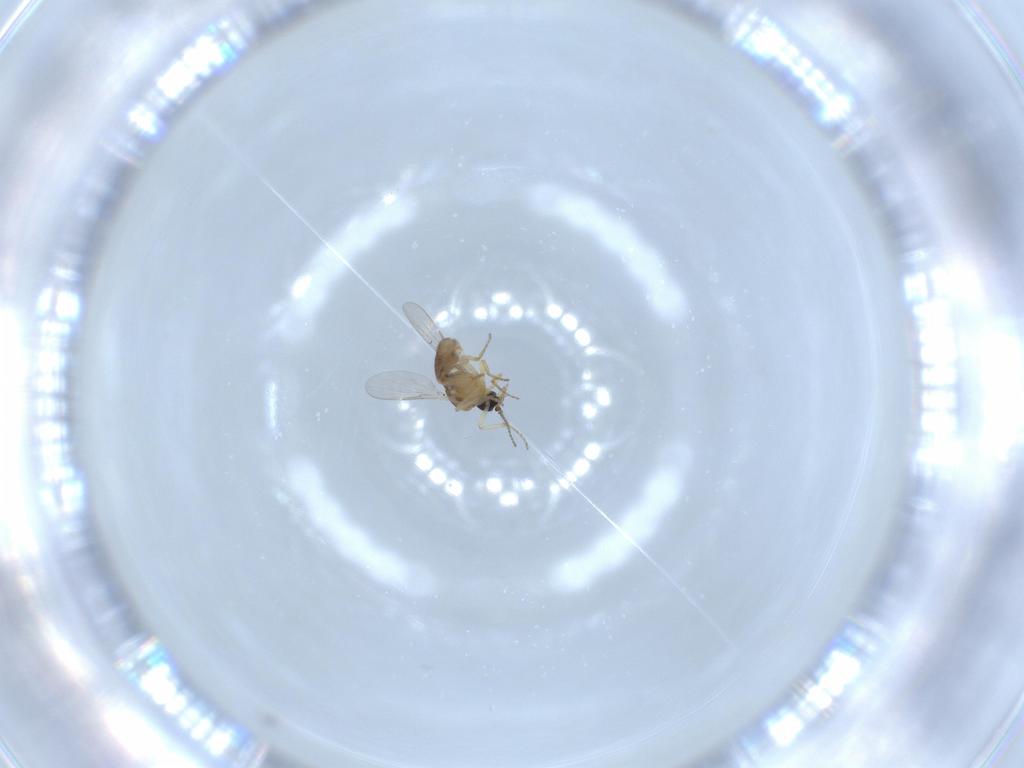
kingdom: Animalia
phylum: Arthropoda
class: Insecta
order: Diptera
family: Ceratopogonidae
